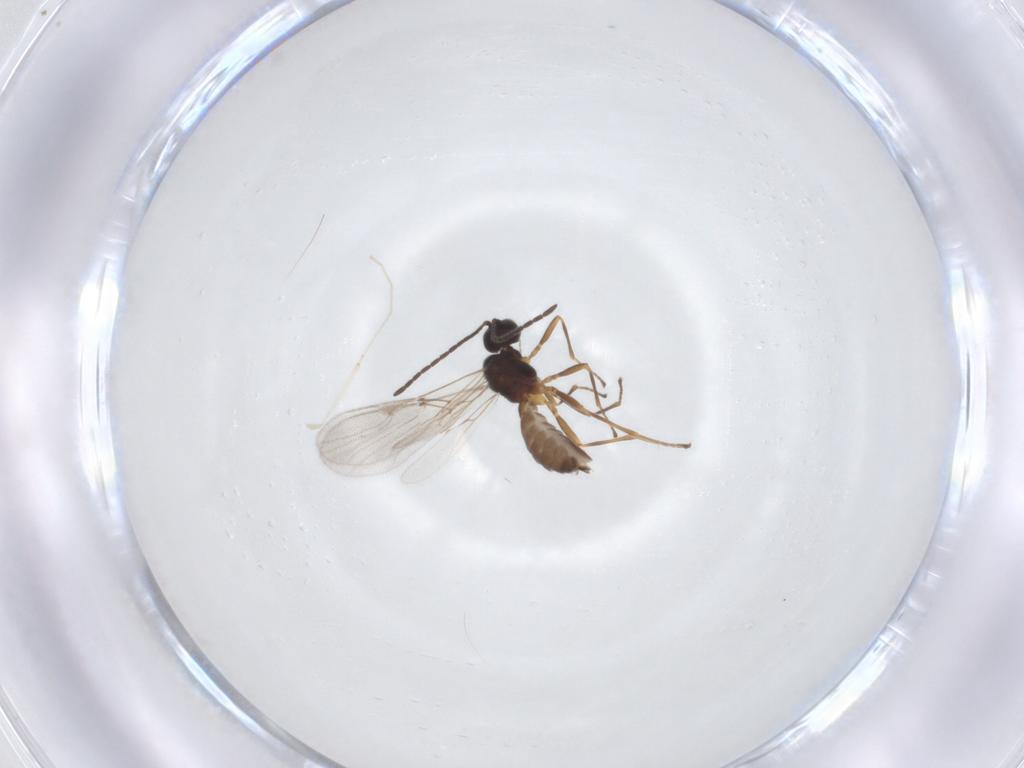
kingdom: Animalia
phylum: Arthropoda
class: Insecta
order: Hymenoptera
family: Braconidae
